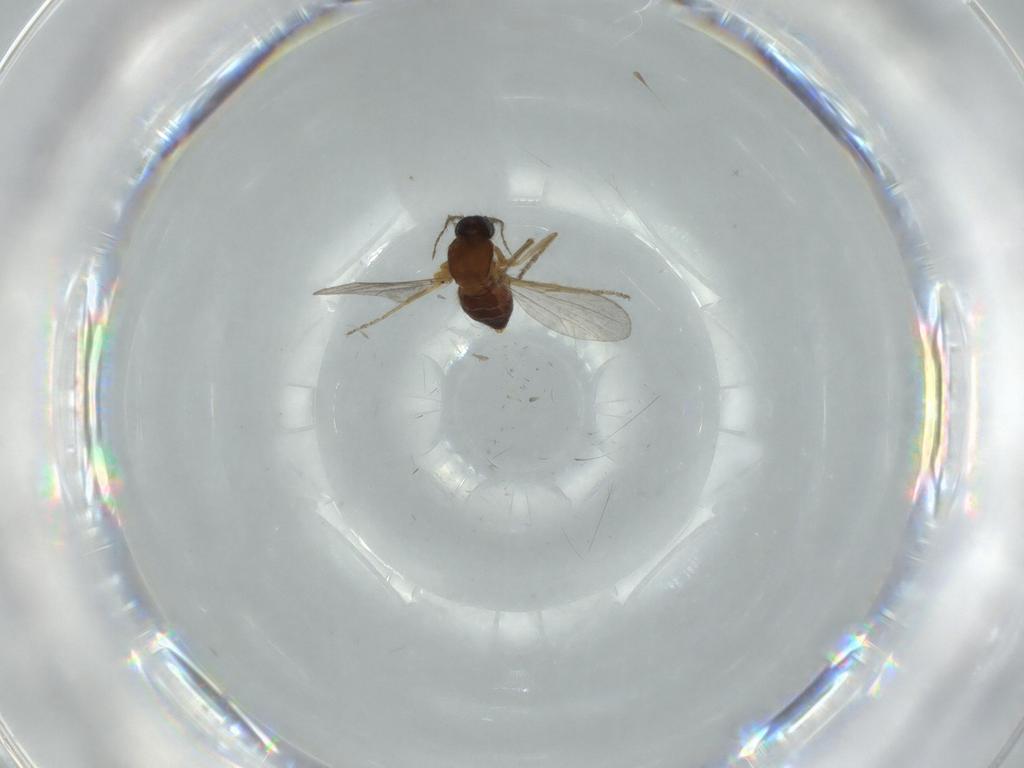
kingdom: Animalia
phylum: Arthropoda
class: Insecta
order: Diptera
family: Ceratopogonidae
